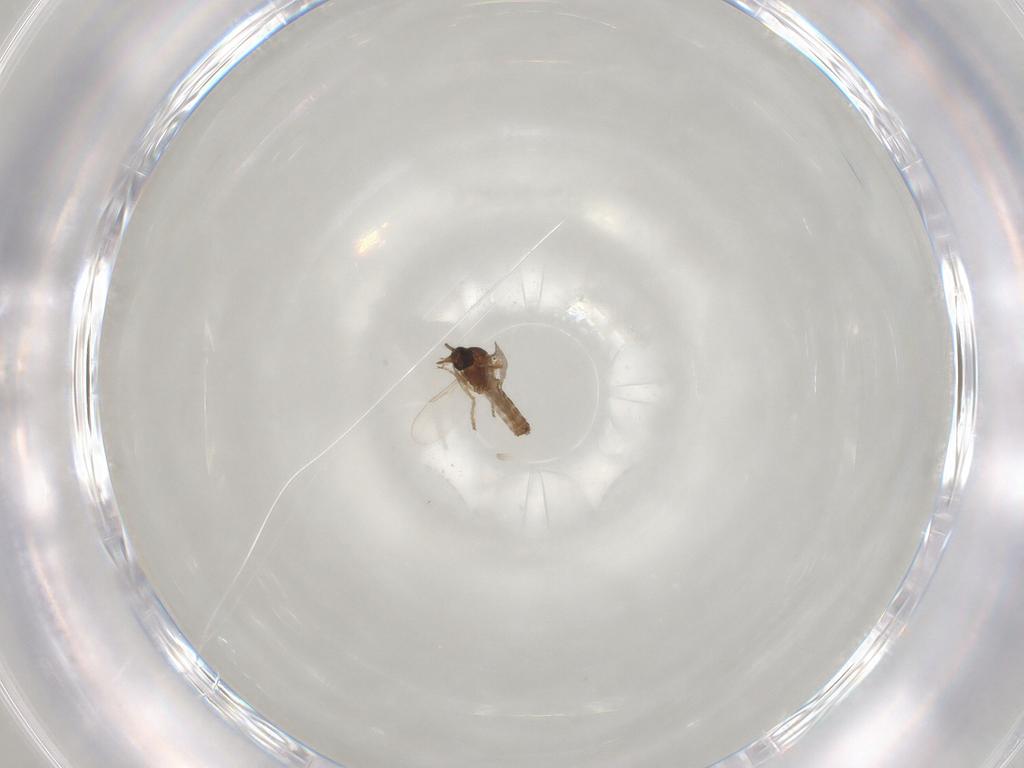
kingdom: Animalia
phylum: Arthropoda
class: Insecta
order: Diptera
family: Ceratopogonidae
